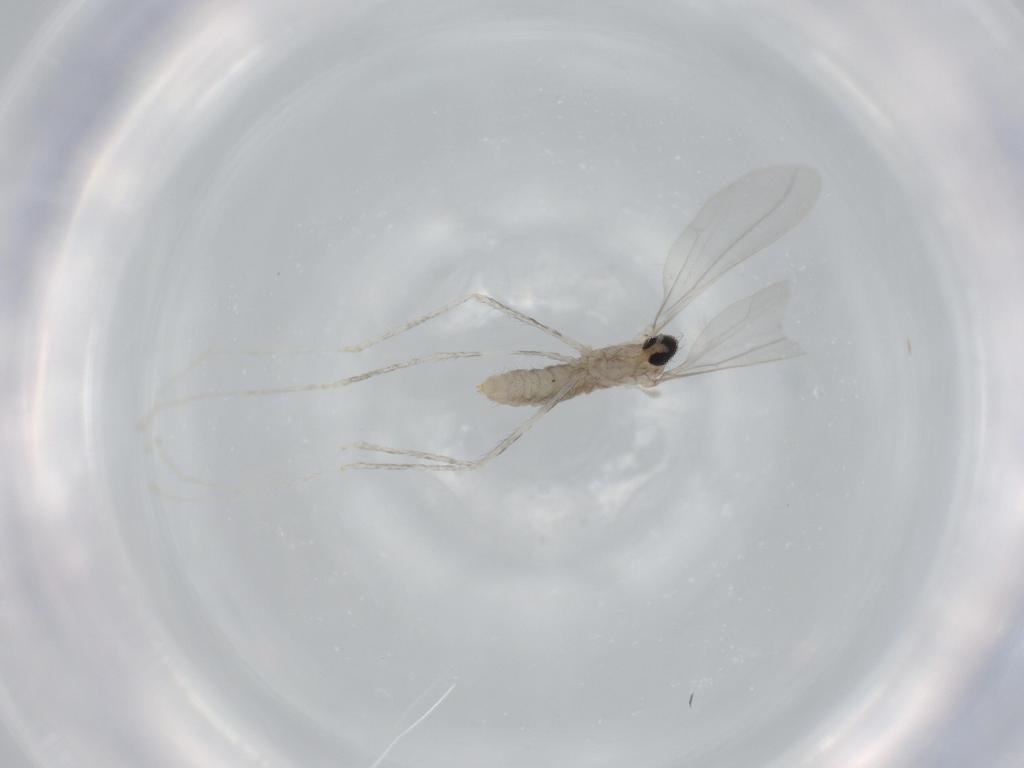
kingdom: Animalia
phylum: Arthropoda
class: Insecta
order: Diptera
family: Cecidomyiidae
